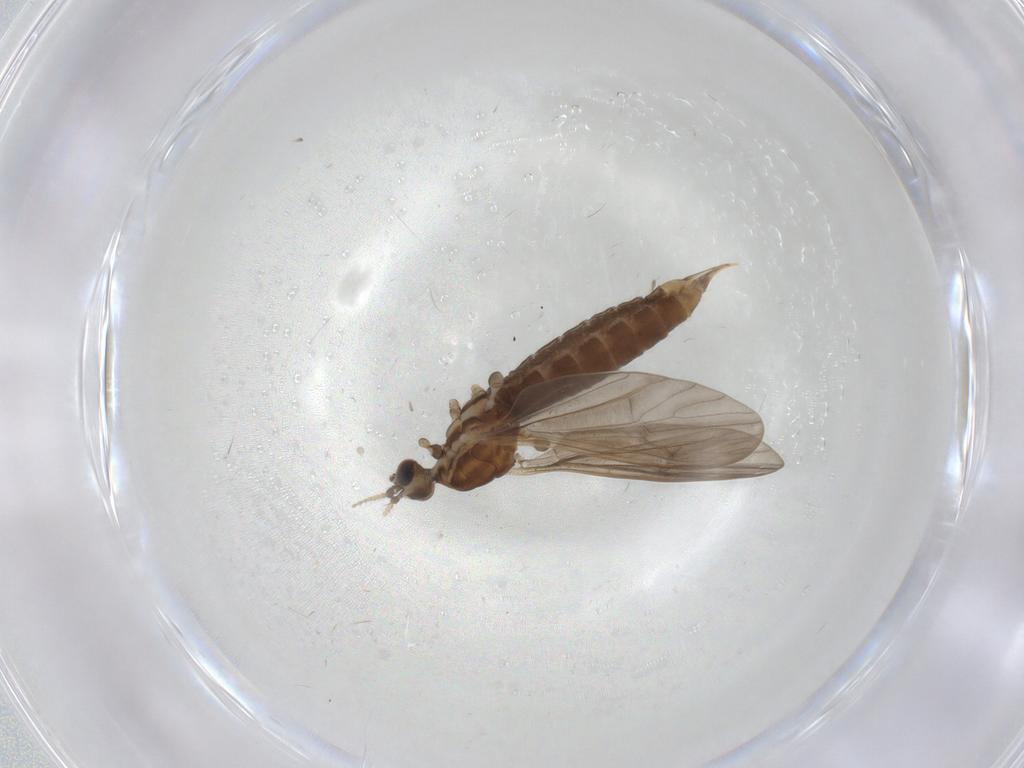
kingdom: Animalia
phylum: Arthropoda
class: Insecta
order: Diptera
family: Limoniidae
